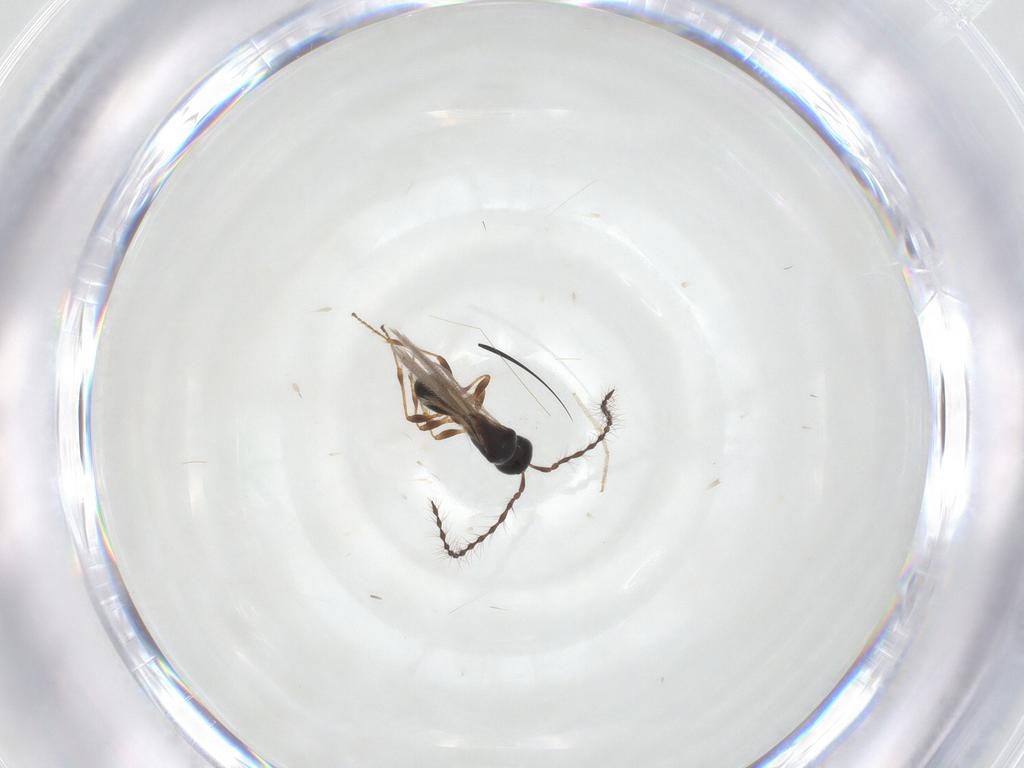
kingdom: Animalia
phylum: Arthropoda
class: Insecta
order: Hymenoptera
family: Diapriidae
